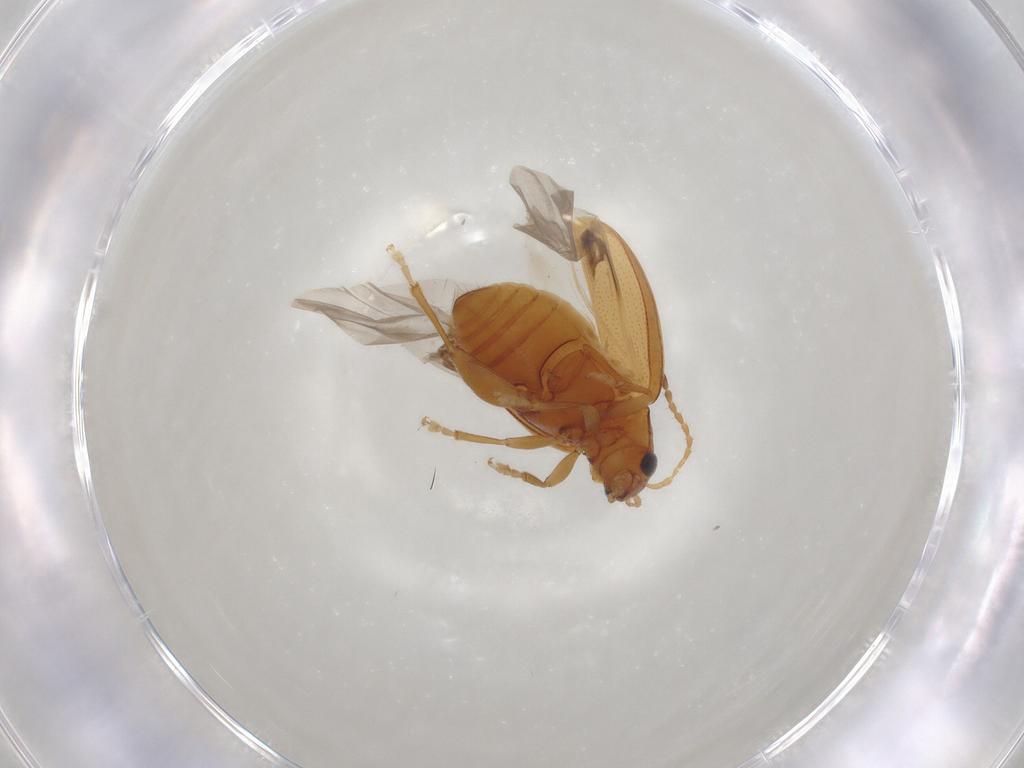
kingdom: Animalia
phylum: Arthropoda
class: Insecta
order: Coleoptera
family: Chrysomelidae
